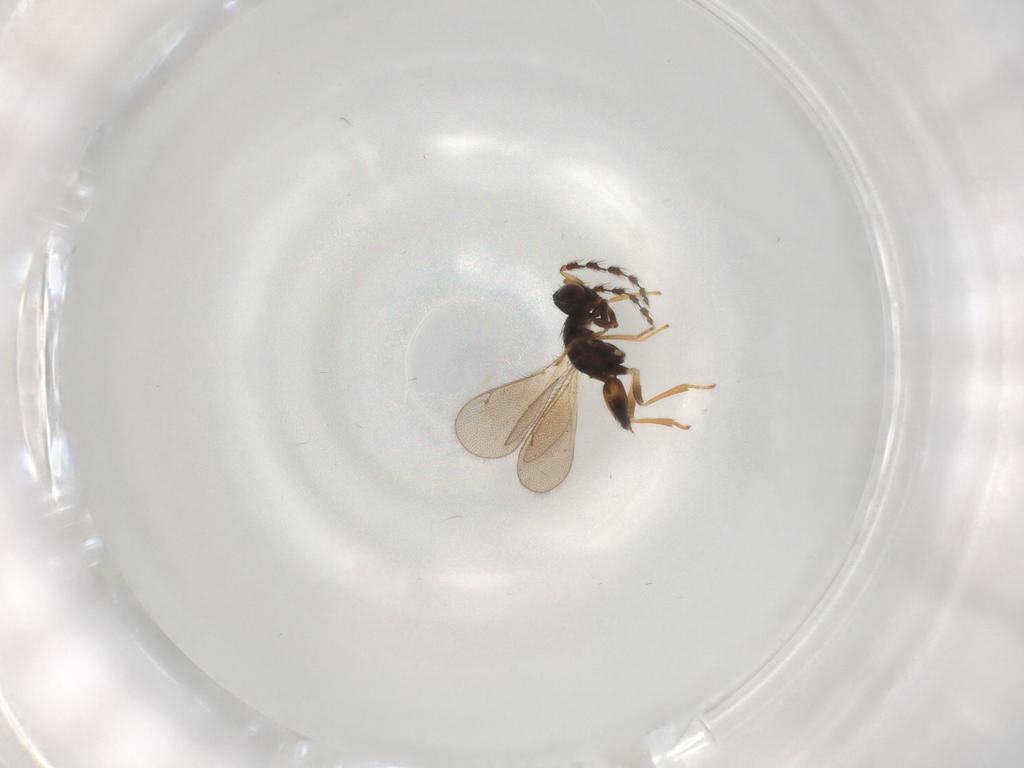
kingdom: Animalia
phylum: Arthropoda
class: Insecta
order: Hymenoptera
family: Eulophidae
